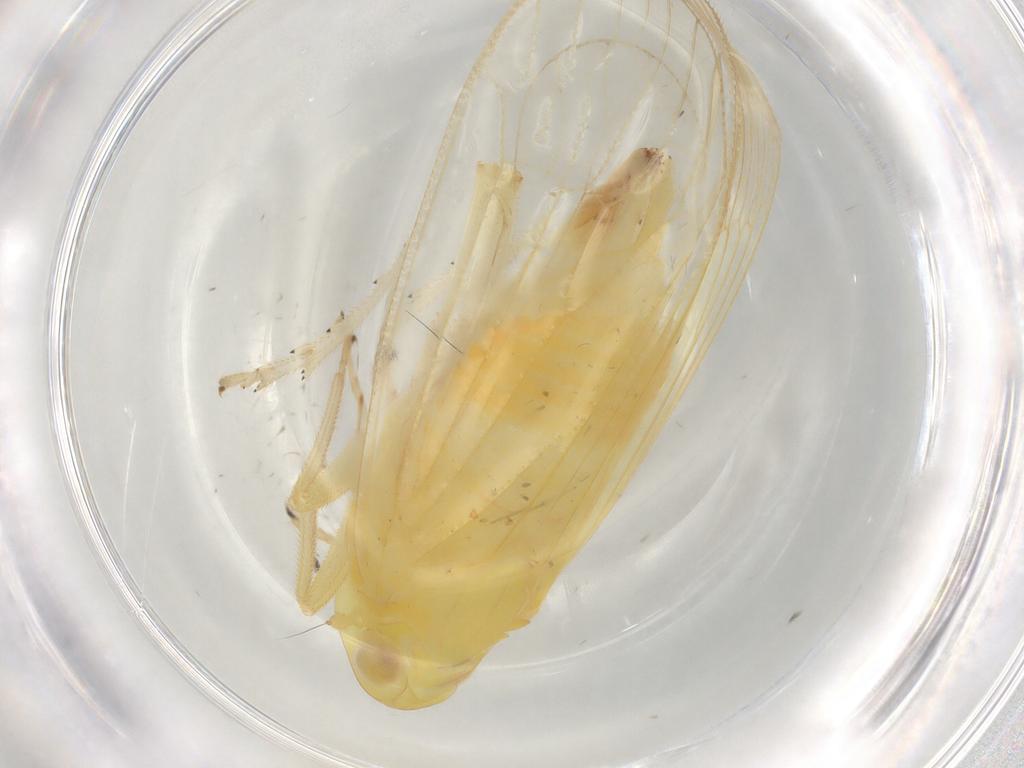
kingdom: Animalia
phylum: Arthropoda
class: Insecta
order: Hemiptera
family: Tropiduchidae
